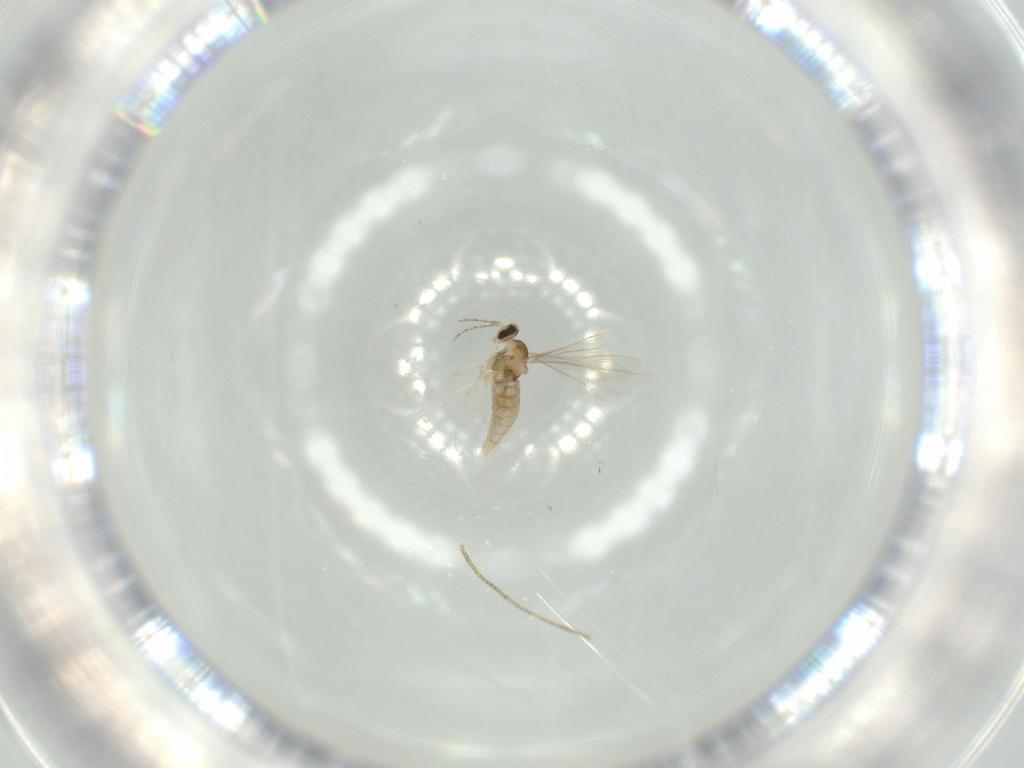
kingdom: Animalia
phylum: Arthropoda
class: Insecta
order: Diptera
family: Cecidomyiidae
